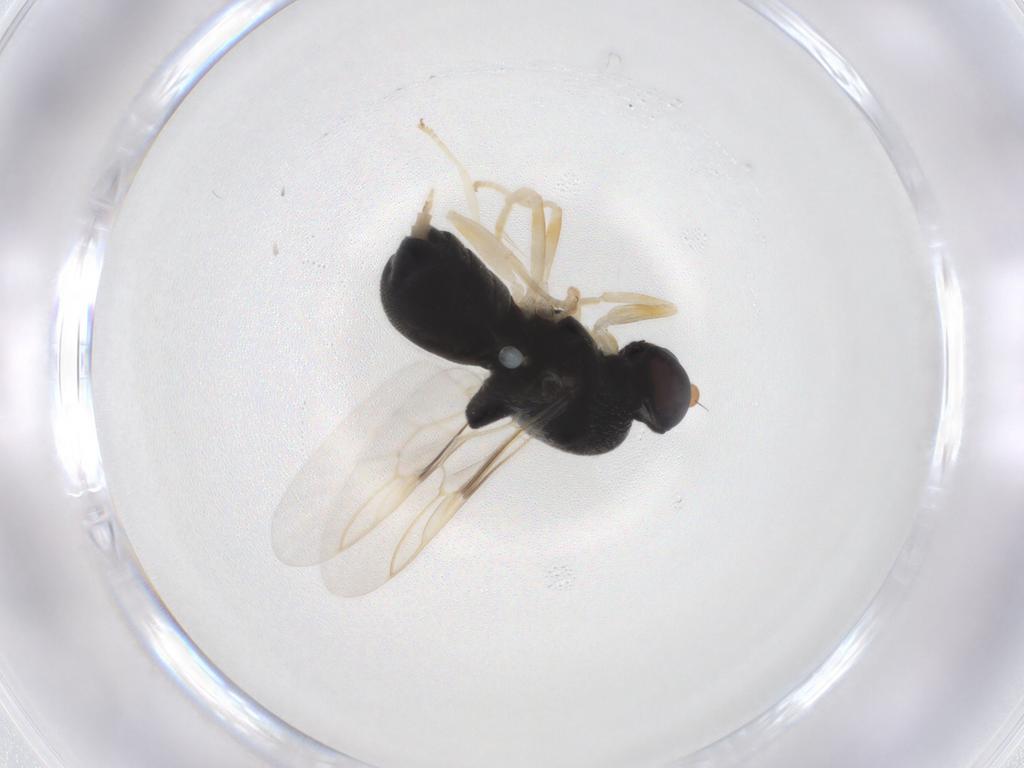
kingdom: Animalia
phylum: Arthropoda
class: Insecta
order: Diptera
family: Stratiomyidae
